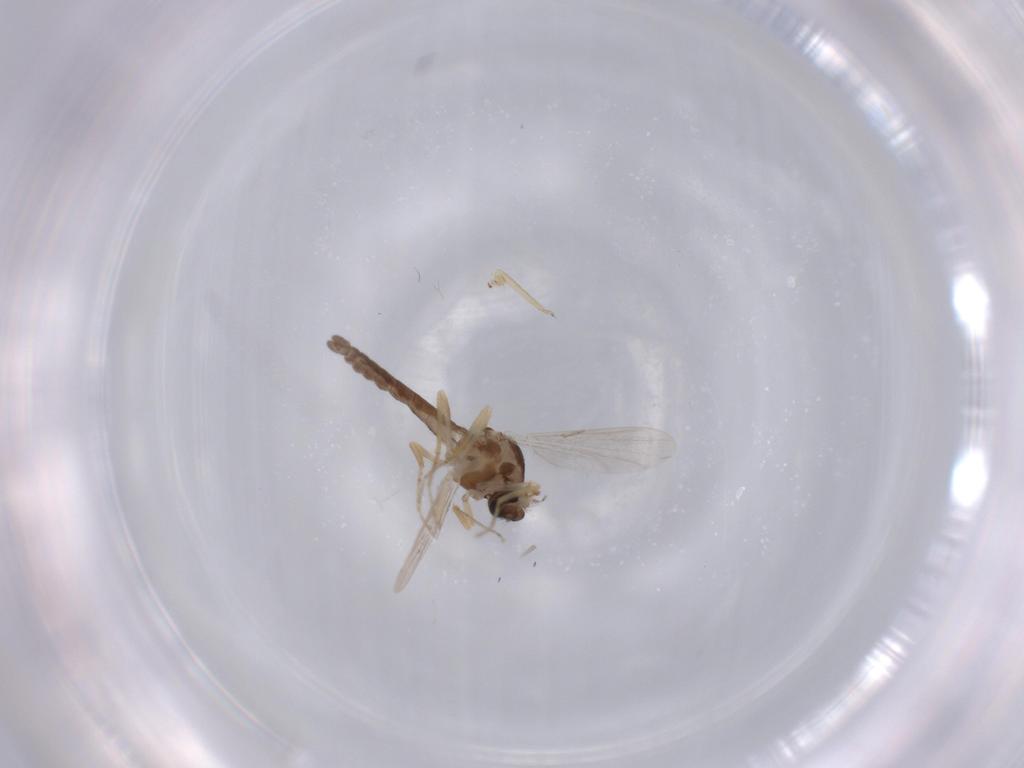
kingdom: Animalia
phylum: Arthropoda
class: Insecta
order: Diptera
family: Ceratopogonidae
